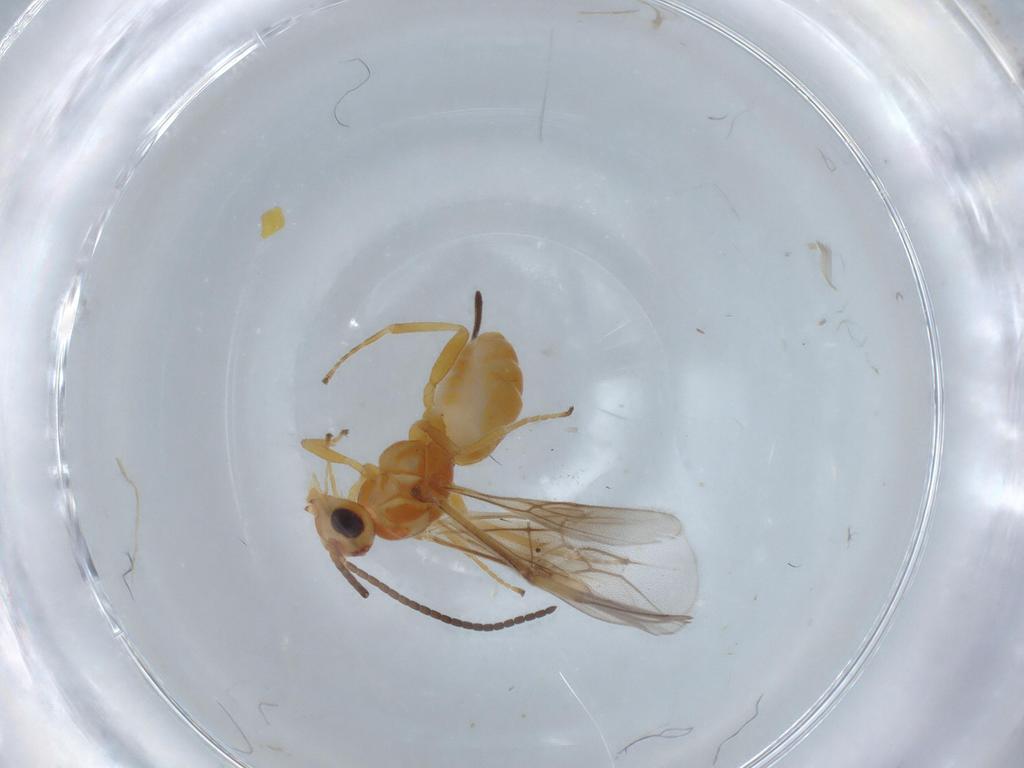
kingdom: Animalia
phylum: Arthropoda
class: Insecta
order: Hymenoptera
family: Braconidae
